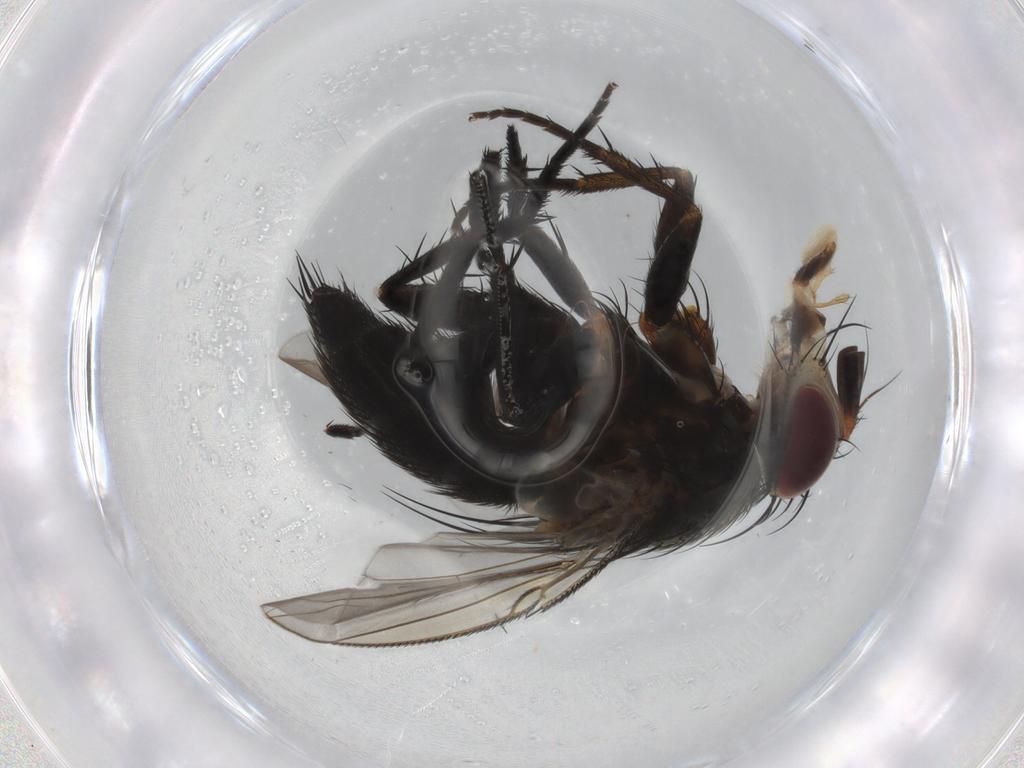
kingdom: Animalia
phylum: Arthropoda
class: Insecta
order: Diptera
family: Tachinidae
